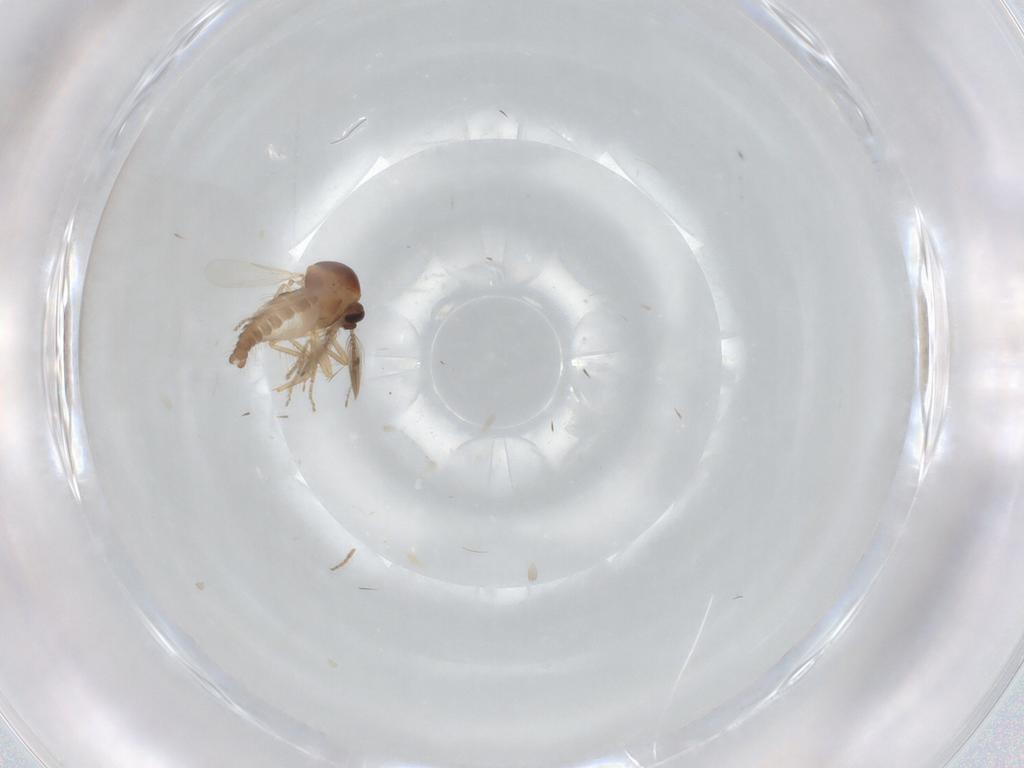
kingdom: Animalia
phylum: Arthropoda
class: Insecta
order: Diptera
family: Ceratopogonidae
